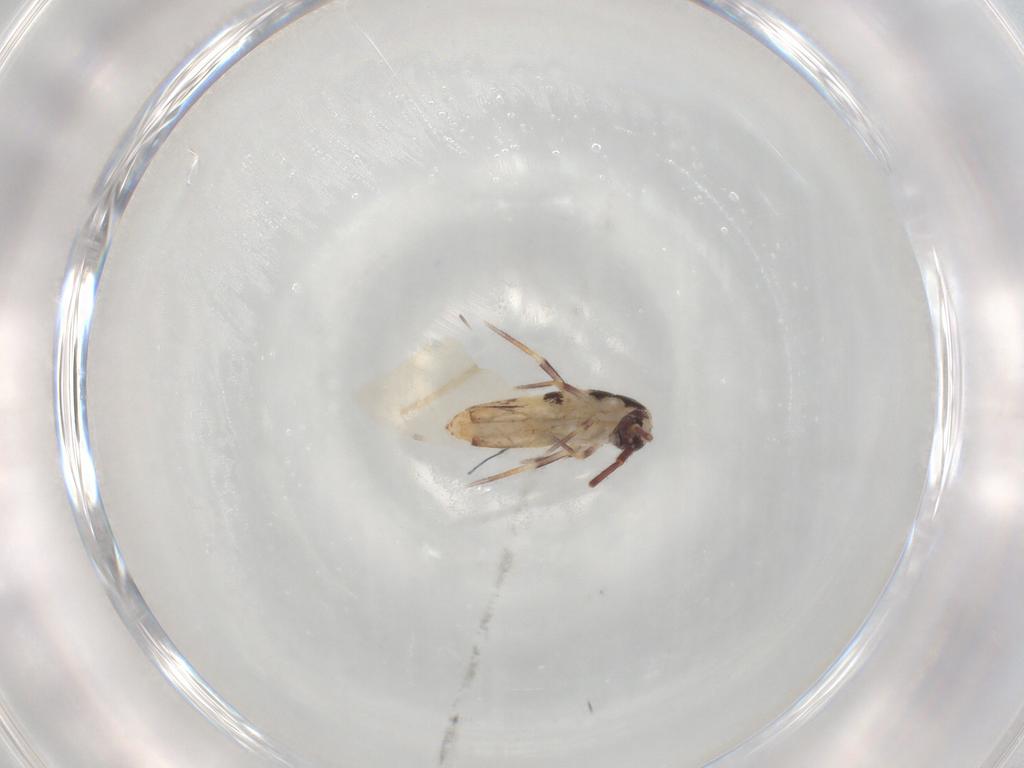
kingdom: Animalia
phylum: Arthropoda
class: Collembola
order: Entomobryomorpha
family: Entomobryidae
